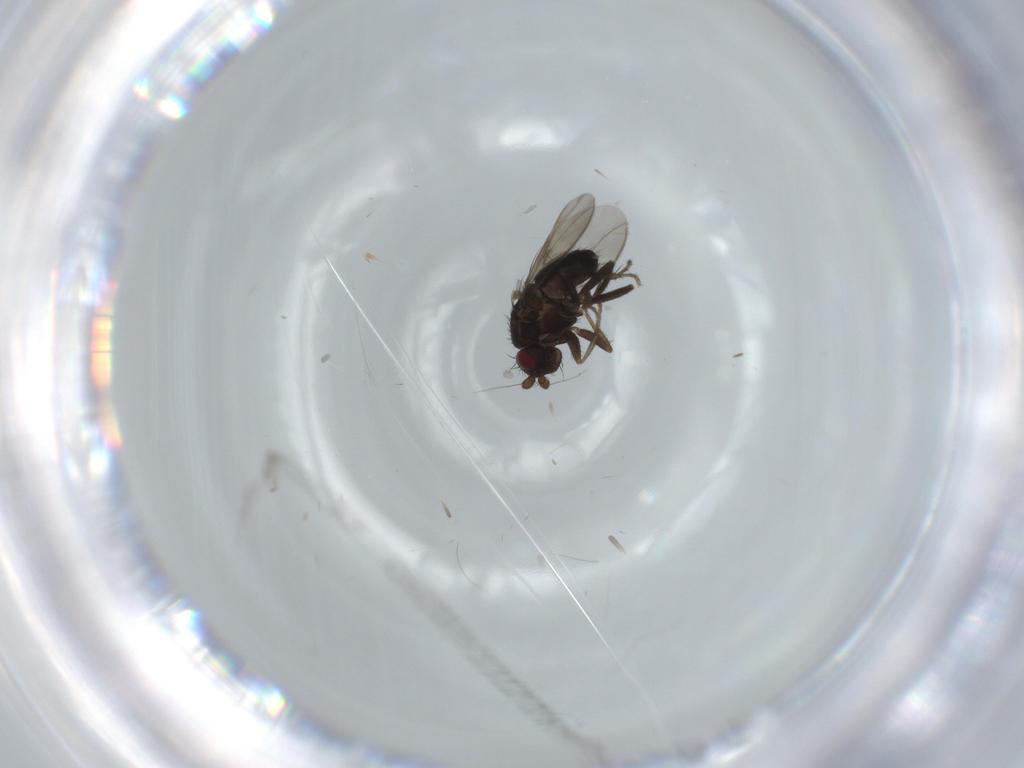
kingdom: Animalia
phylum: Arthropoda
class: Insecta
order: Diptera
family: Sphaeroceridae
